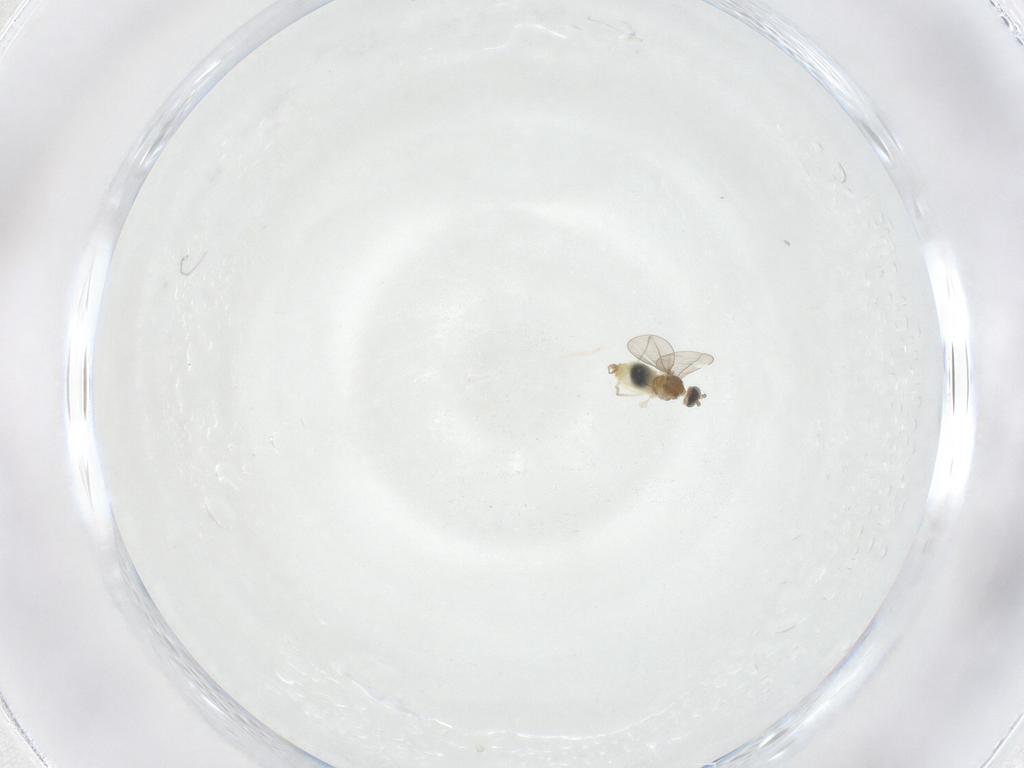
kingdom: Animalia
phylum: Arthropoda
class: Insecta
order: Diptera
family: Cecidomyiidae
